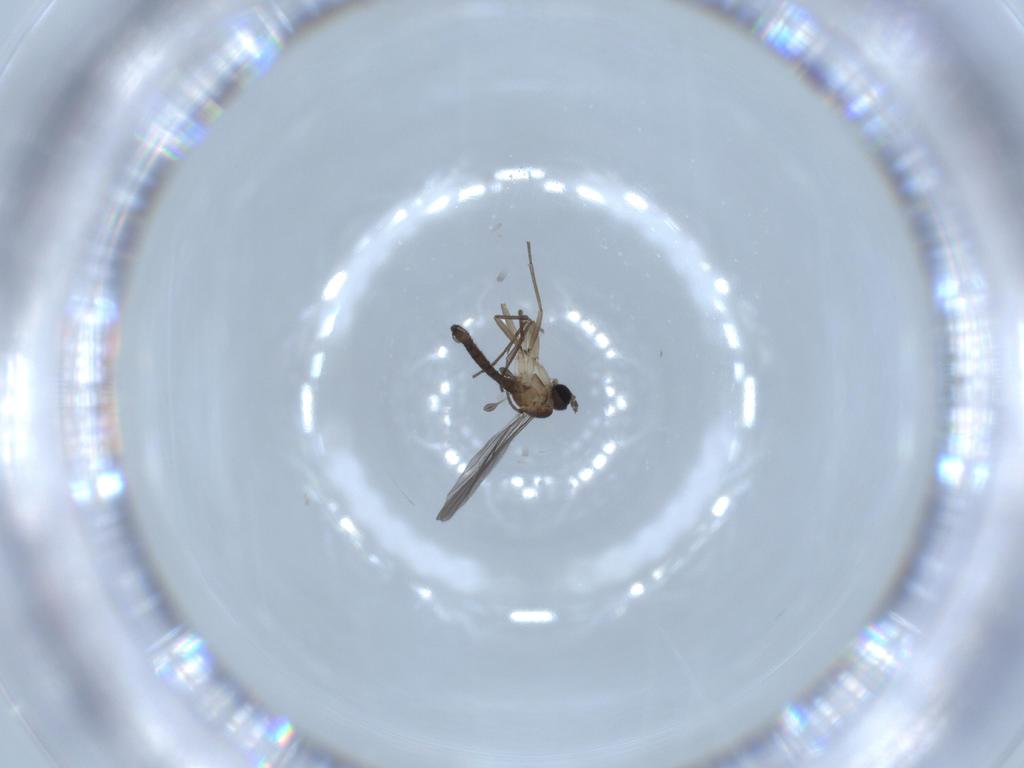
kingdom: Animalia
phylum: Arthropoda
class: Insecta
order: Diptera
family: Sciaridae
